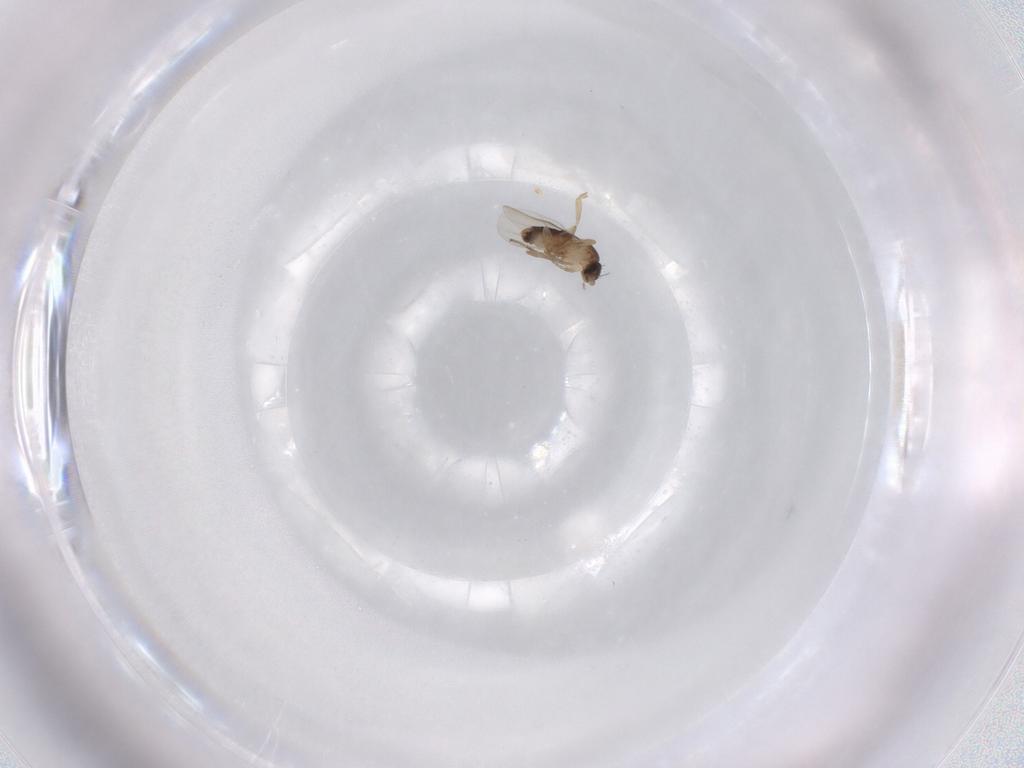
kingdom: Animalia
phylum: Arthropoda
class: Insecta
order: Diptera
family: Phoridae
